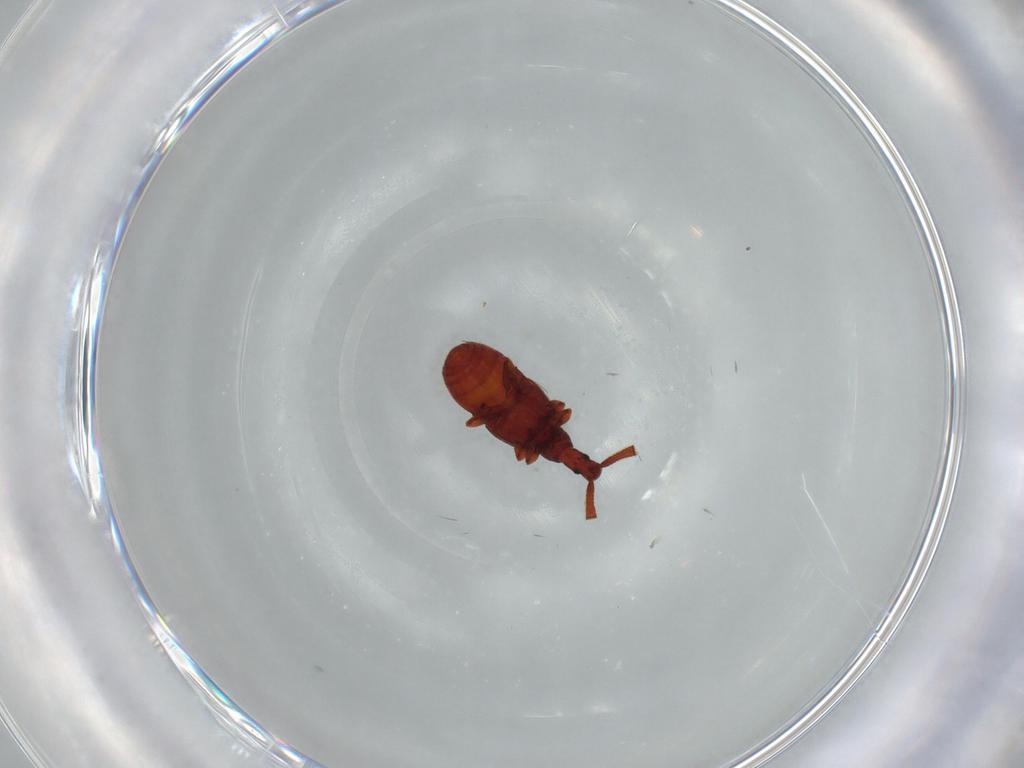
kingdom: Animalia
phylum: Arthropoda
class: Insecta
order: Coleoptera
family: Staphylinidae
